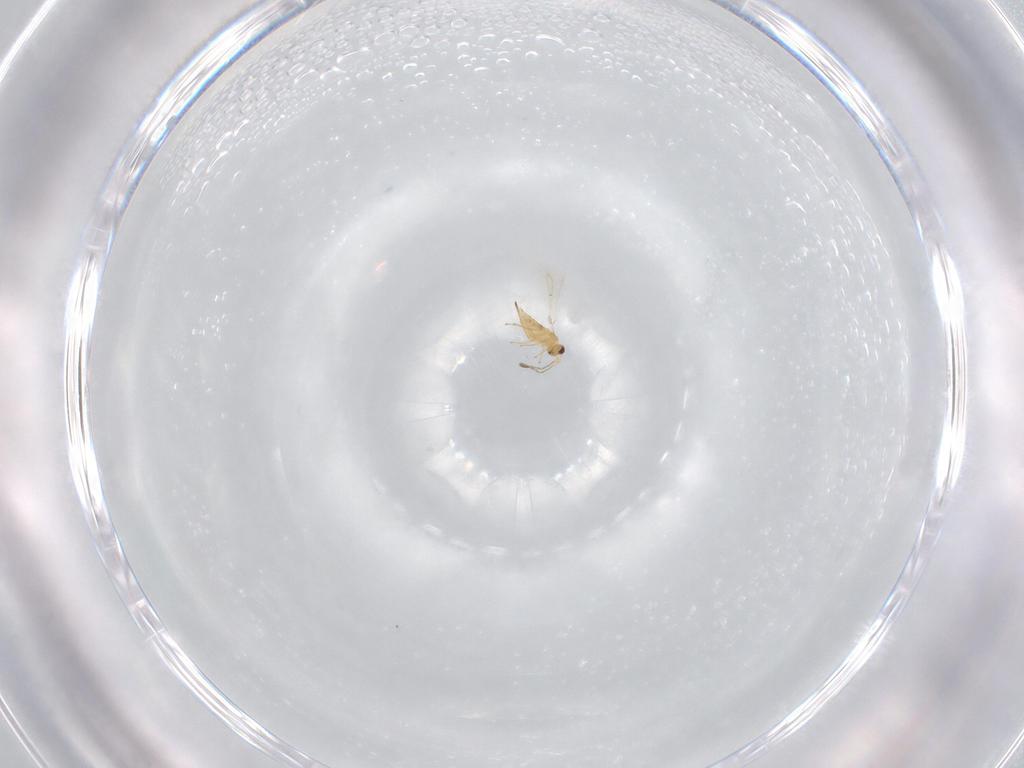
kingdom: Animalia
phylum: Arthropoda
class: Insecta
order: Hymenoptera
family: Mymaridae
